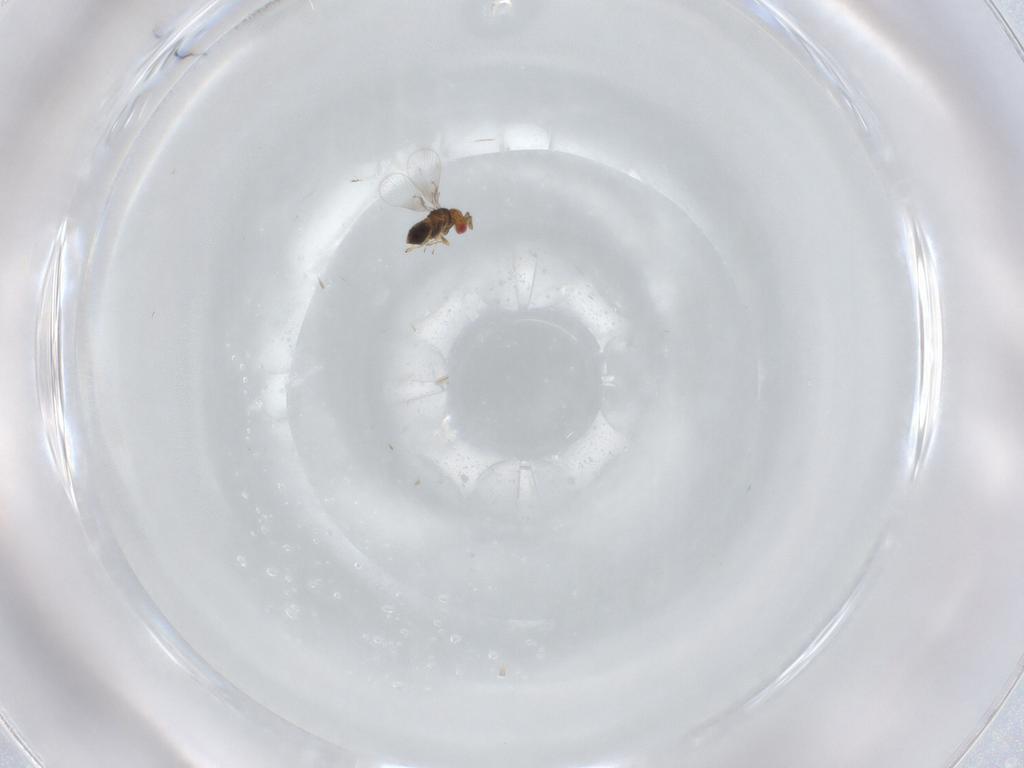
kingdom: Animalia
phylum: Arthropoda
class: Insecta
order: Hymenoptera
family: Trichogrammatidae
